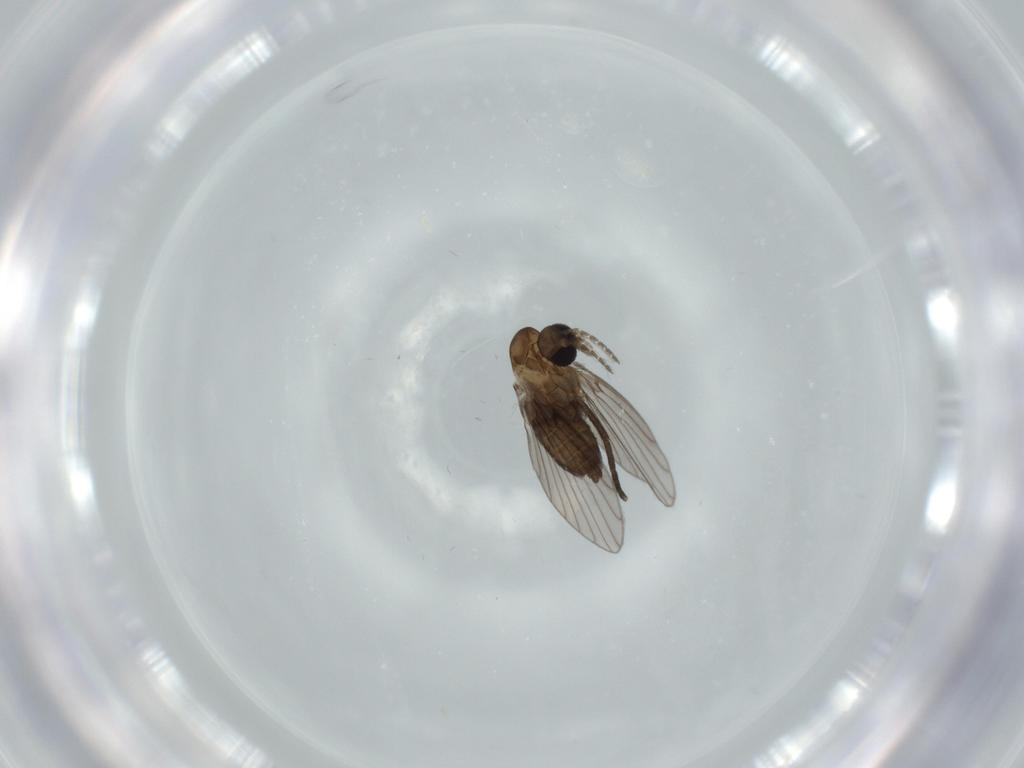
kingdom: Animalia
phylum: Arthropoda
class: Insecta
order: Diptera
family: Psychodidae
